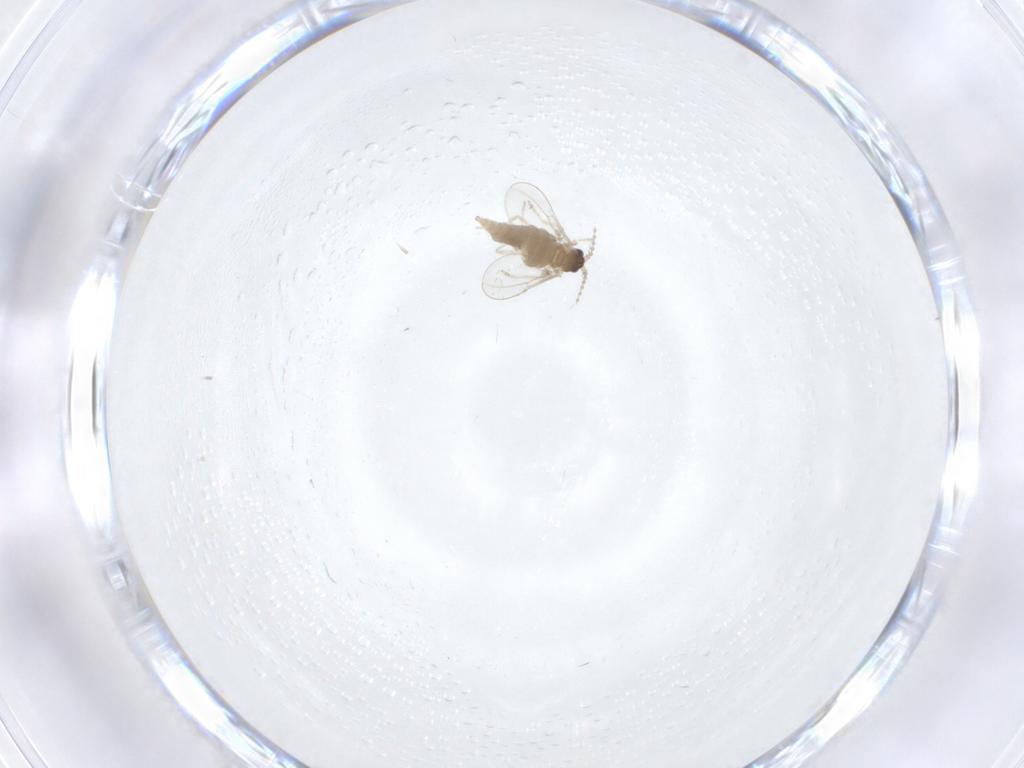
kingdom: Animalia
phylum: Arthropoda
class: Insecta
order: Diptera
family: Cecidomyiidae
